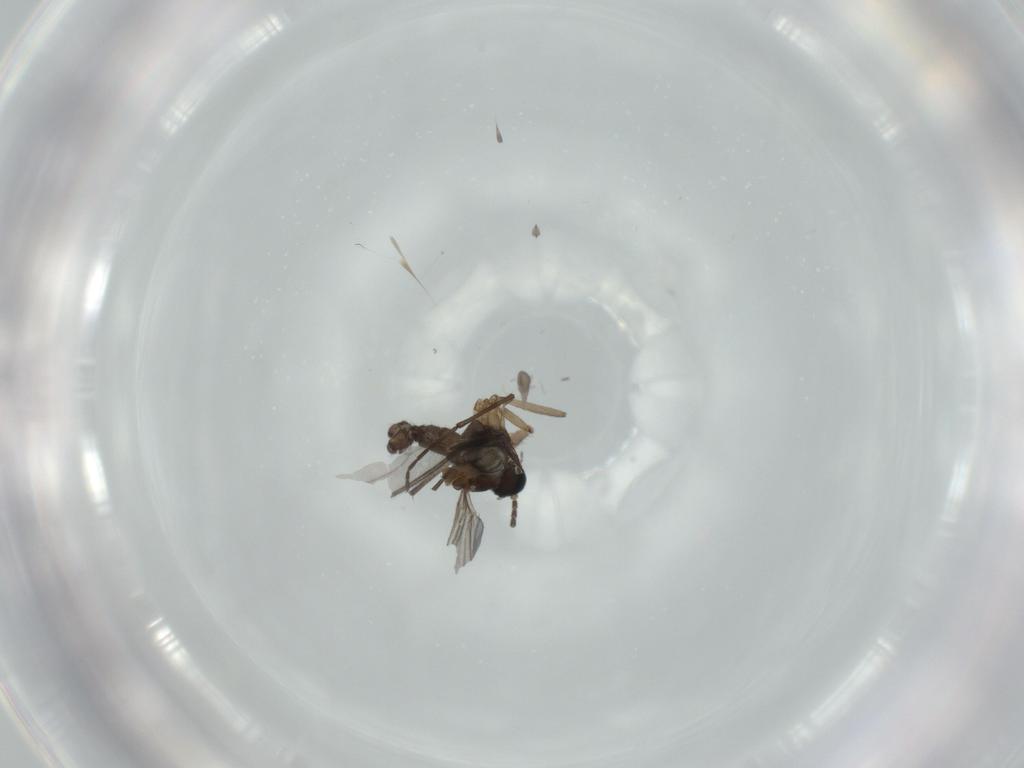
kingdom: Animalia
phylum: Arthropoda
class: Insecta
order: Diptera
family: Sciaridae
